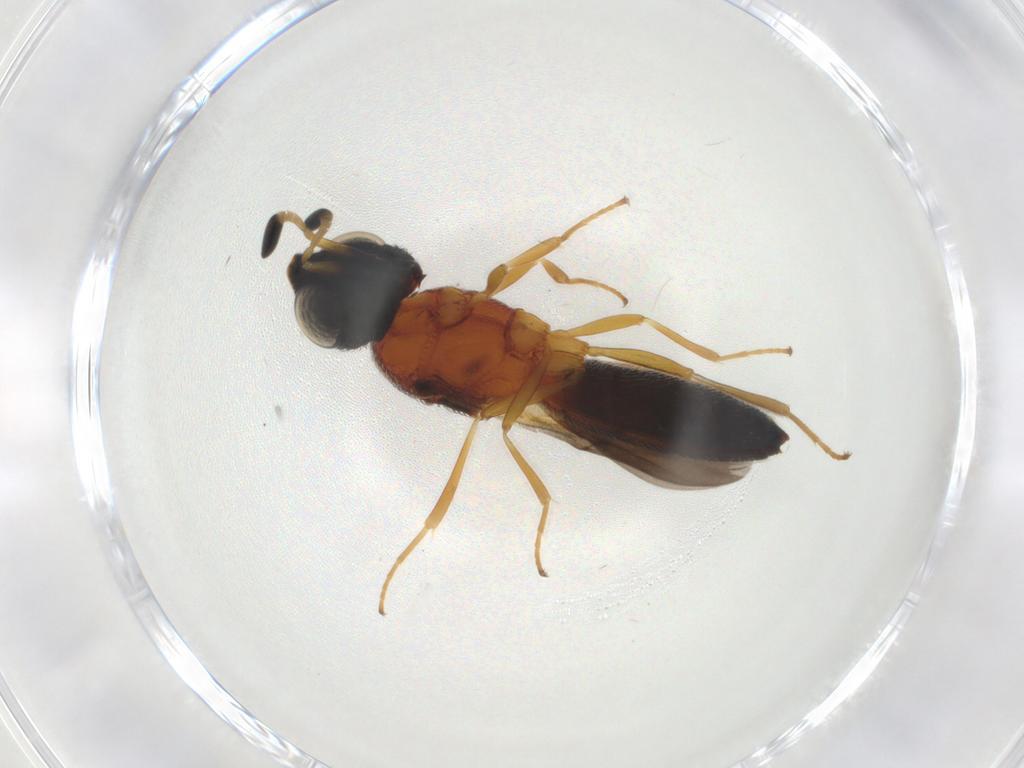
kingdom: Animalia
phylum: Arthropoda
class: Insecta
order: Hymenoptera
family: Scelionidae
